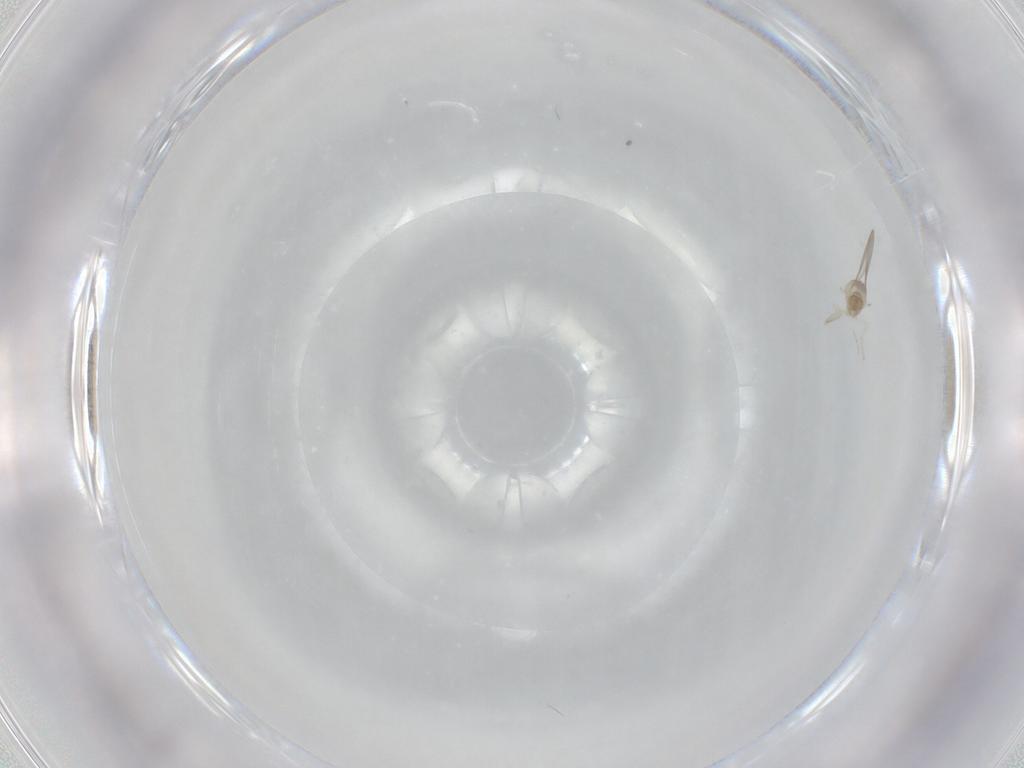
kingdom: Animalia
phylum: Arthropoda
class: Insecta
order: Diptera
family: Cecidomyiidae
